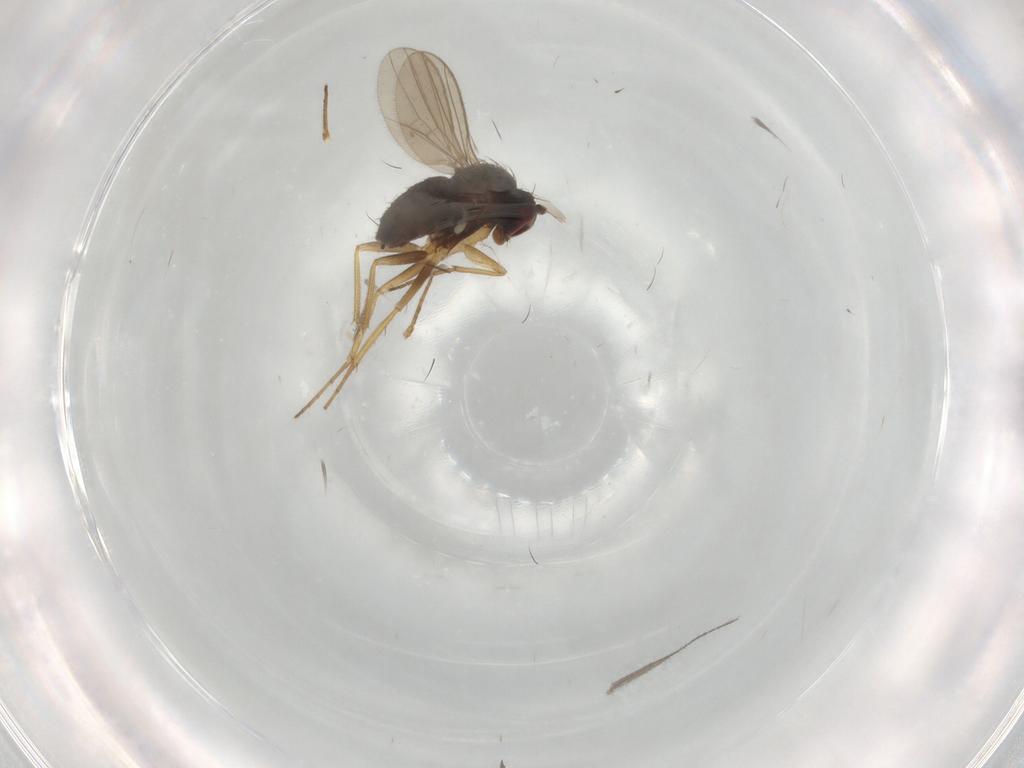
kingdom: Animalia
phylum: Arthropoda
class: Insecta
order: Diptera
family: Dolichopodidae
